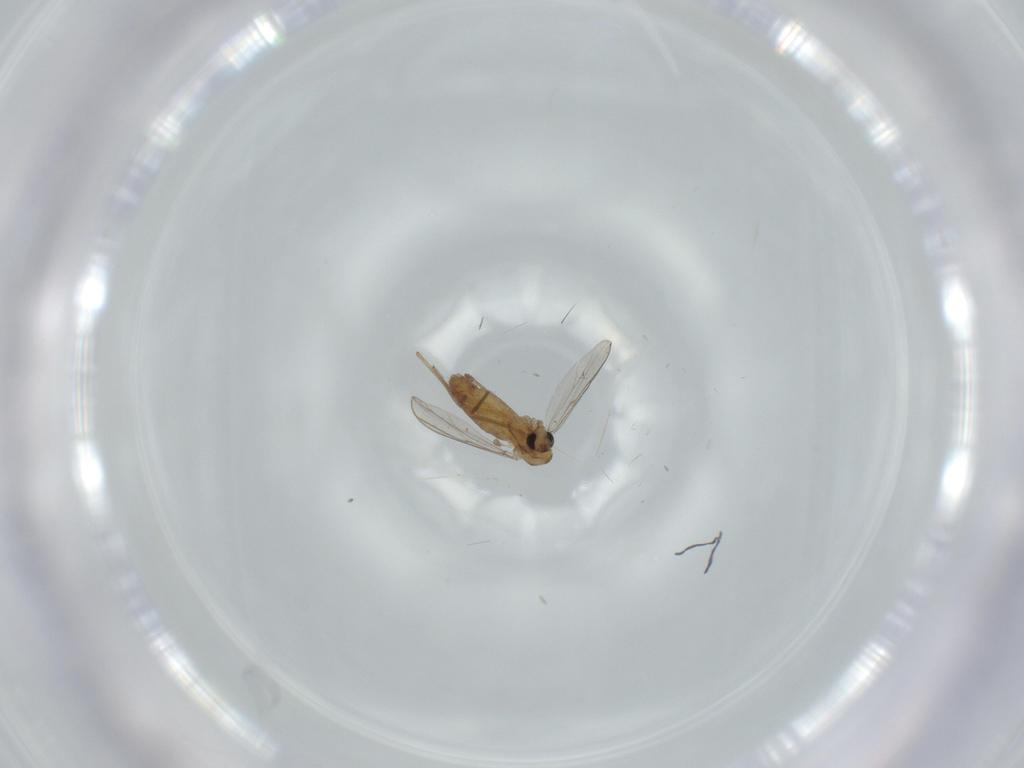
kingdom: Animalia
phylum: Arthropoda
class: Insecta
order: Diptera
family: Chironomidae
